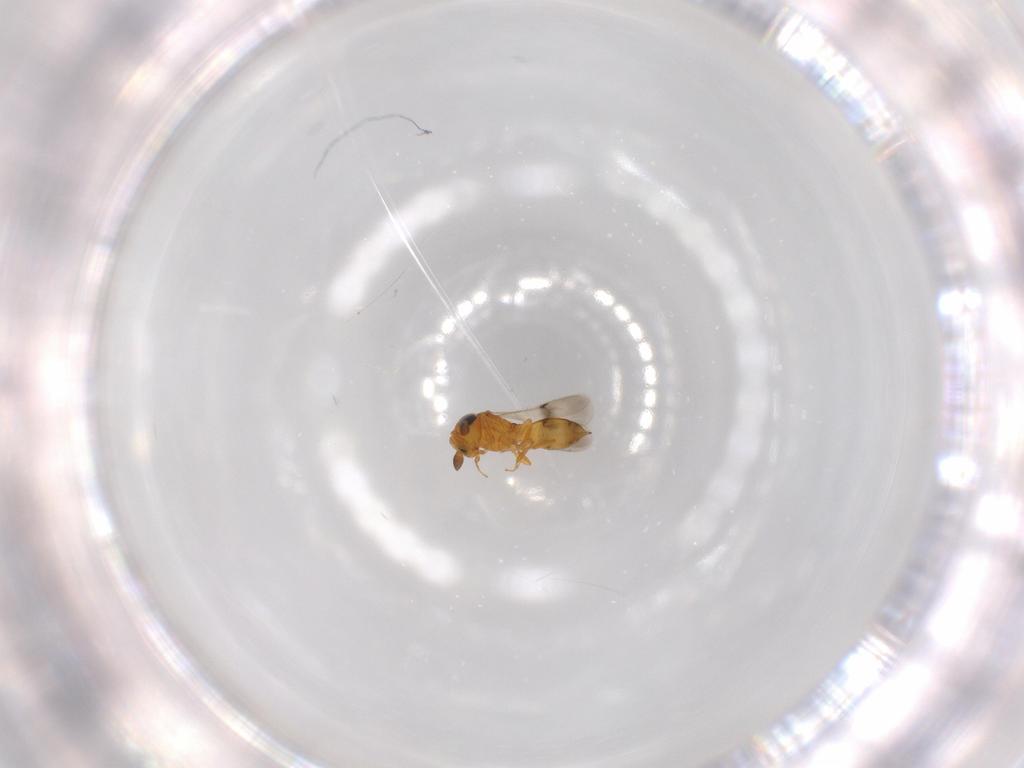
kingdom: Animalia
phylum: Arthropoda
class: Insecta
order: Hymenoptera
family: Scelionidae
